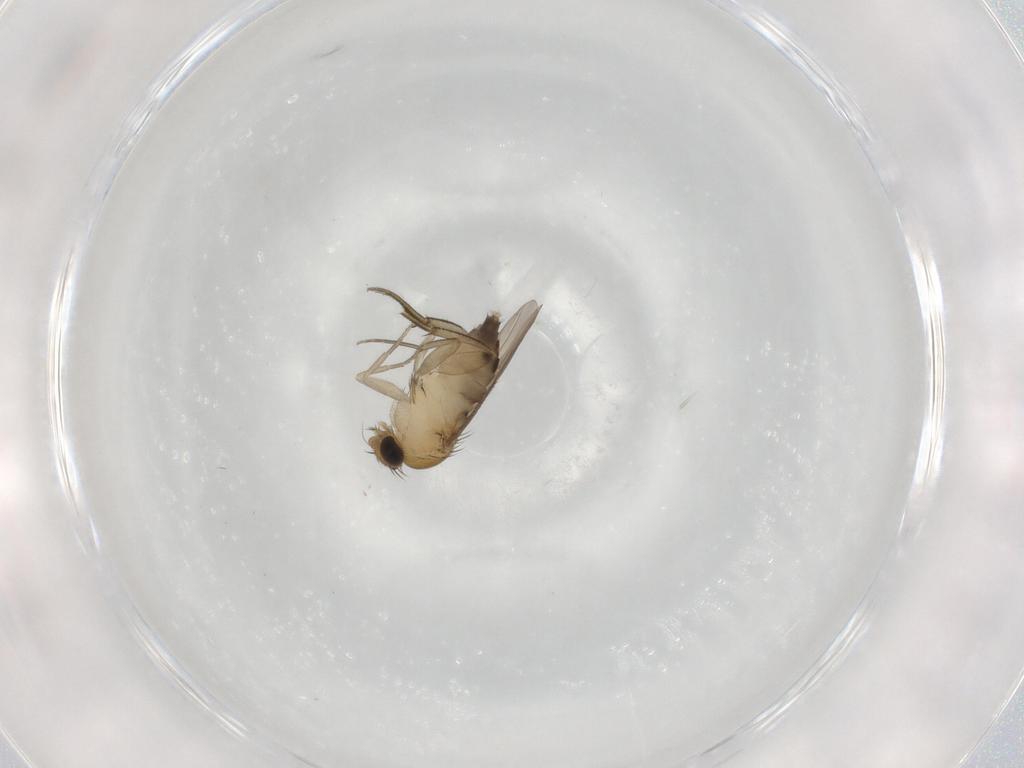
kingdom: Animalia
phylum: Arthropoda
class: Insecta
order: Diptera
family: Phoridae
